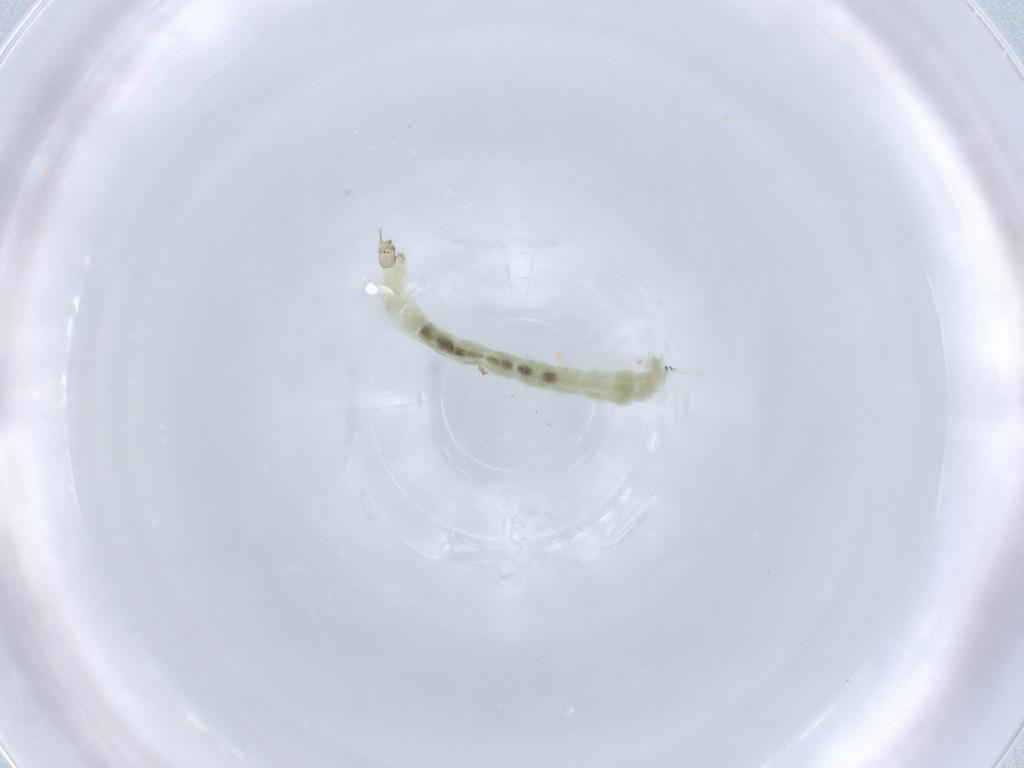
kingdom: Animalia
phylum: Arthropoda
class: Insecta
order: Diptera
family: Chironomidae
